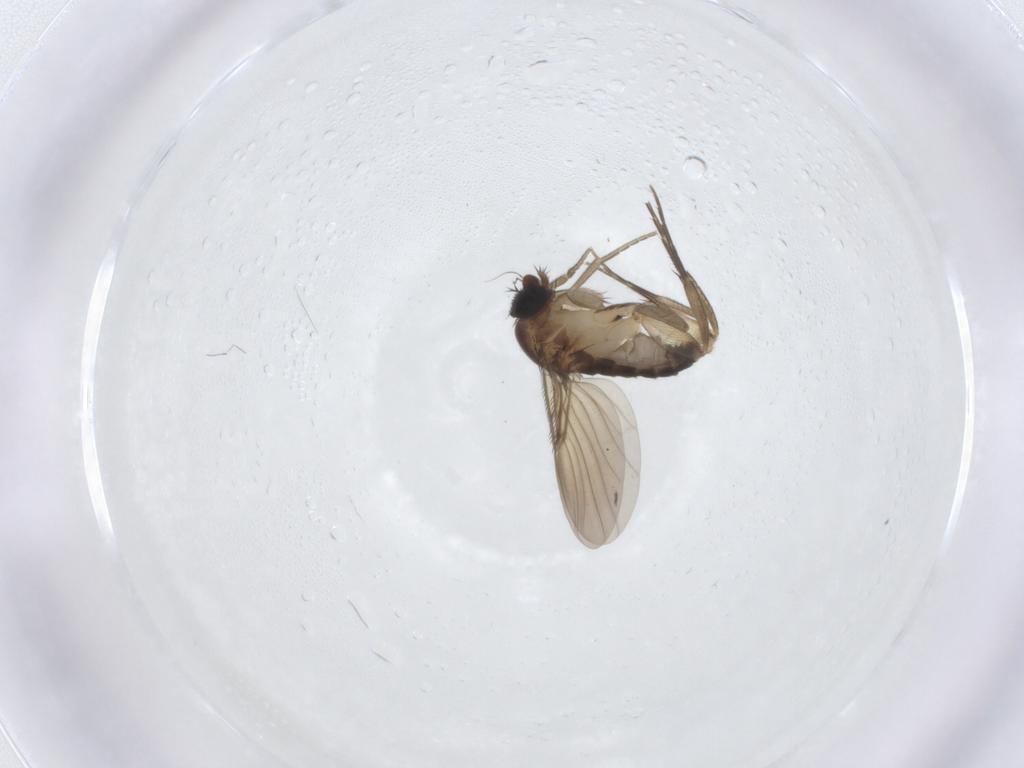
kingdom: Animalia
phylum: Arthropoda
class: Insecta
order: Diptera
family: Phoridae
